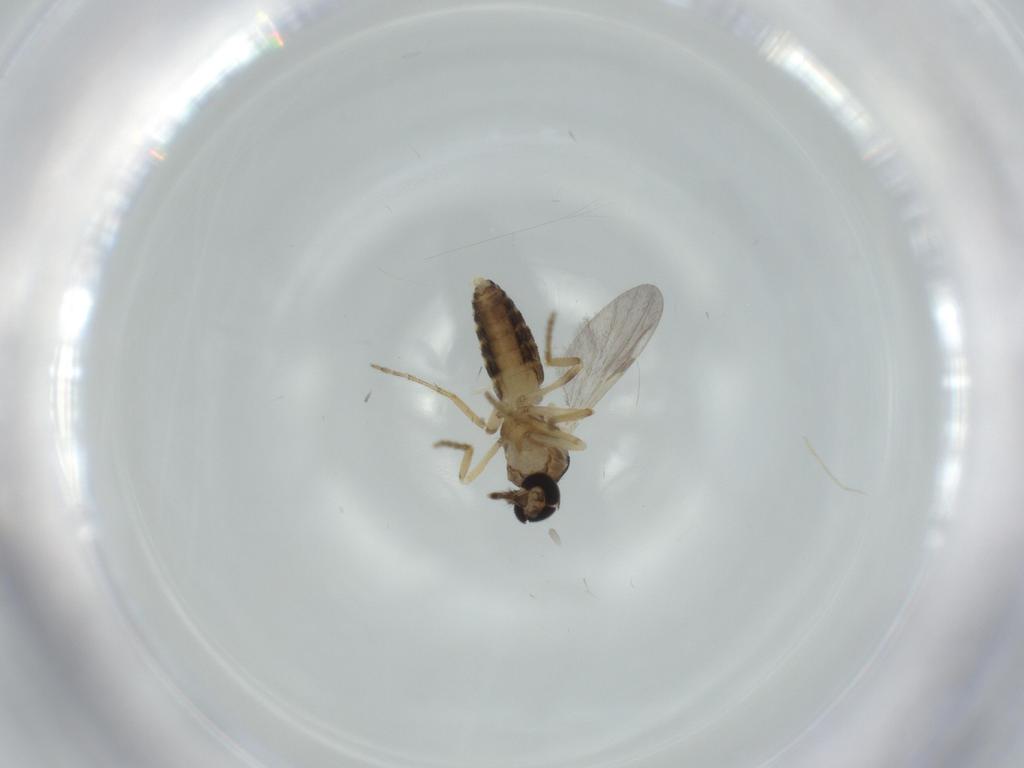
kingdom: Animalia
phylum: Arthropoda
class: Insecta
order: Diptera
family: Ceratopogonidae
